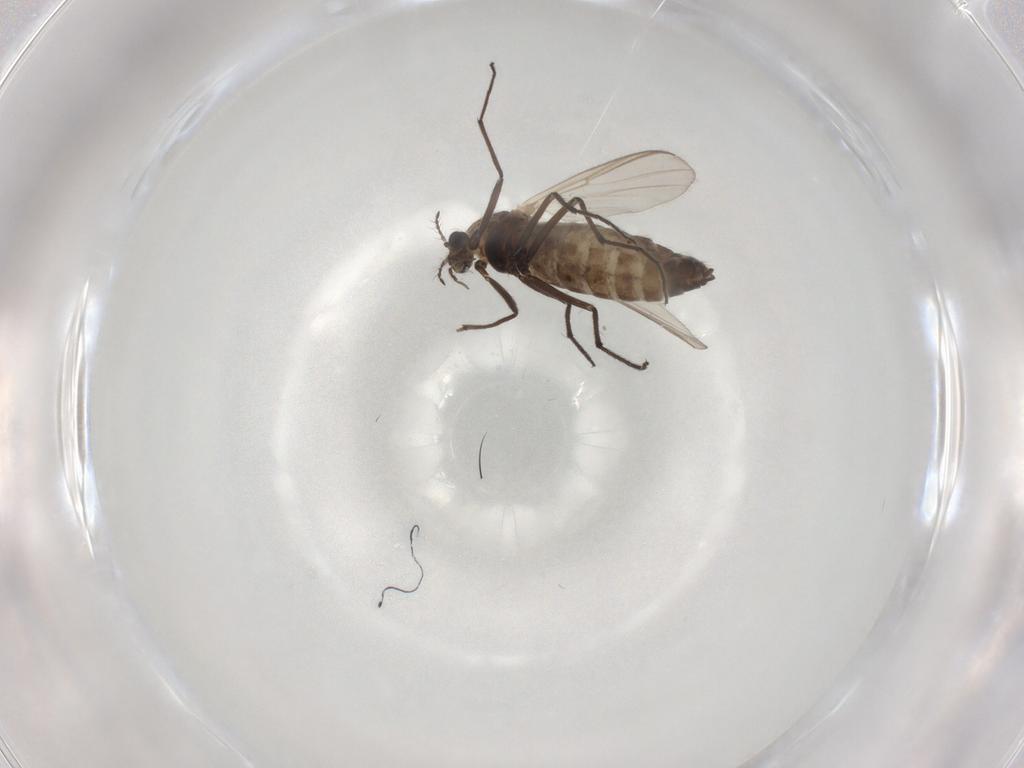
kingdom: Animalia
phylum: Arthropoda
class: Insecta
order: Diptera
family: Chironomidae
